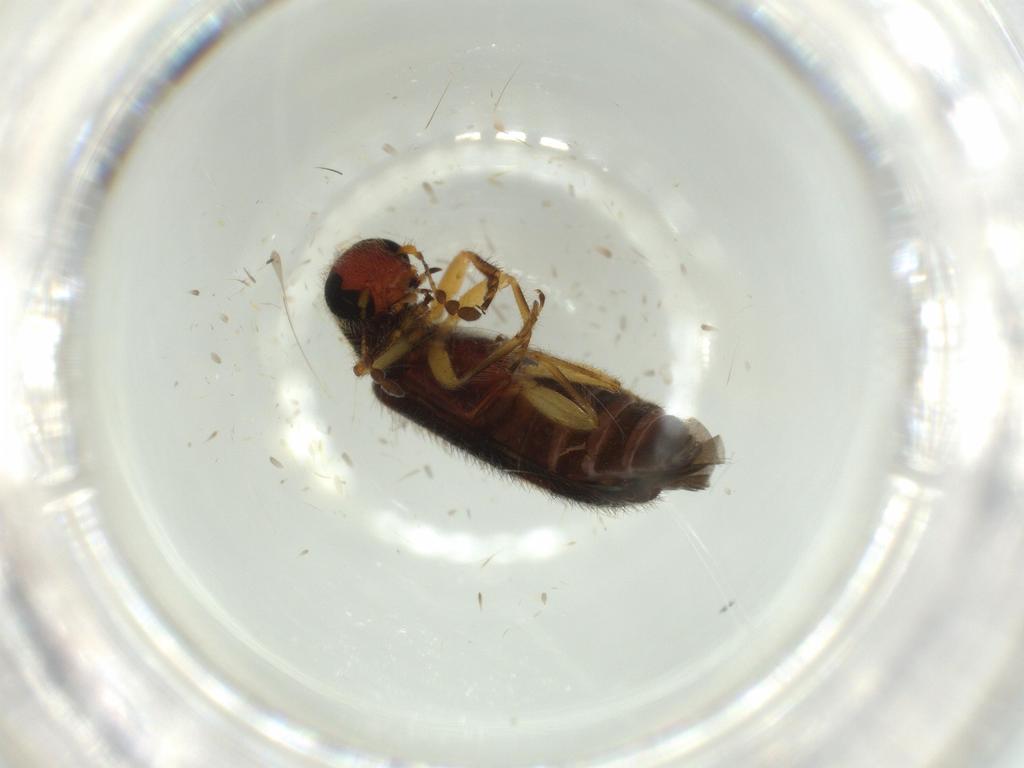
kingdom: Animalia
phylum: Arthropoda
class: Insecta
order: Coleoptera
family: Cleridae
